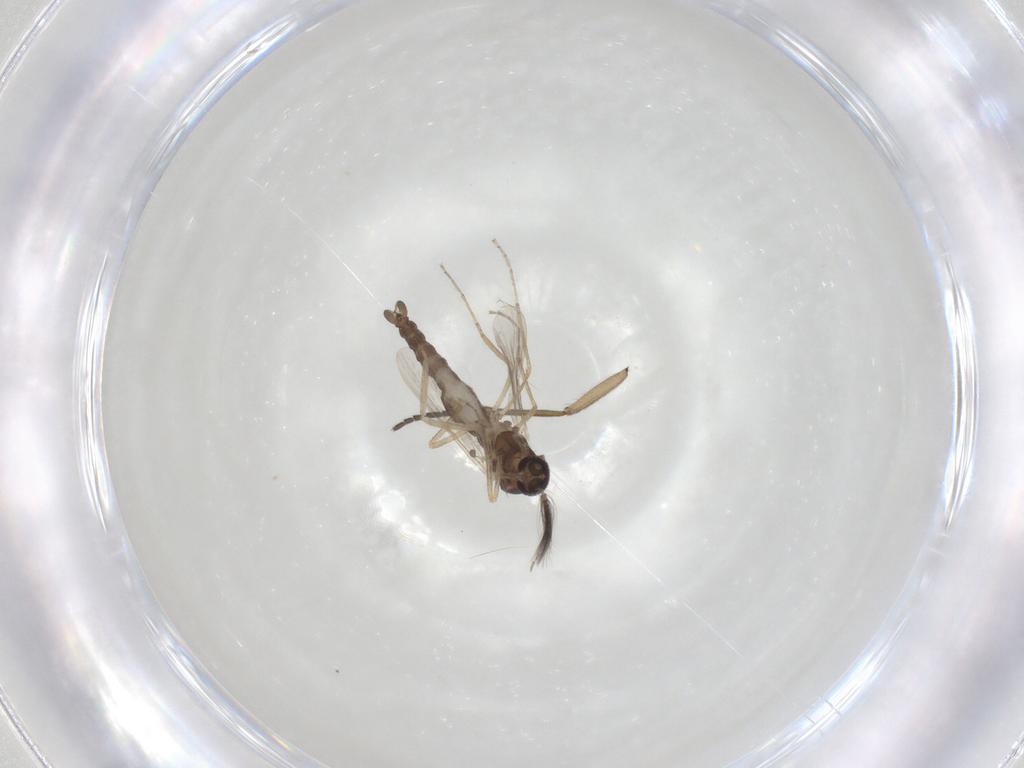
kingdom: Animalia
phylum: Arthropoda
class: Insecta
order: Diptera
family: Ceratopogonidae
